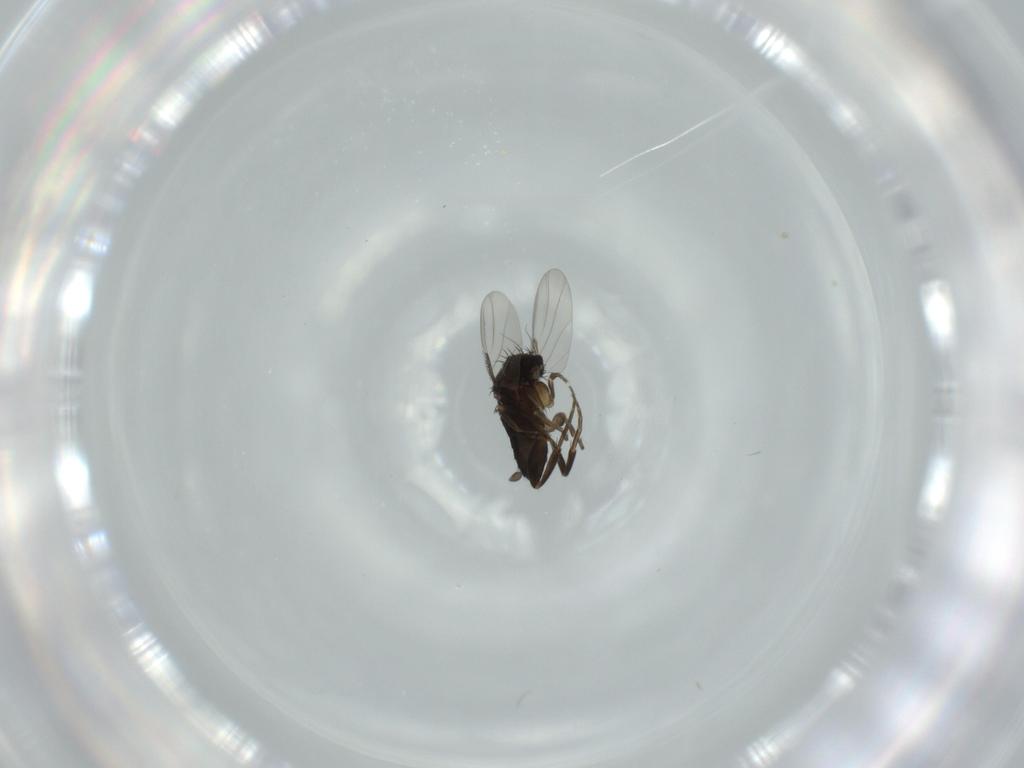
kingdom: Animalia
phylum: Arthropoda
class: Insecta
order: Diptera
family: Phoridae
